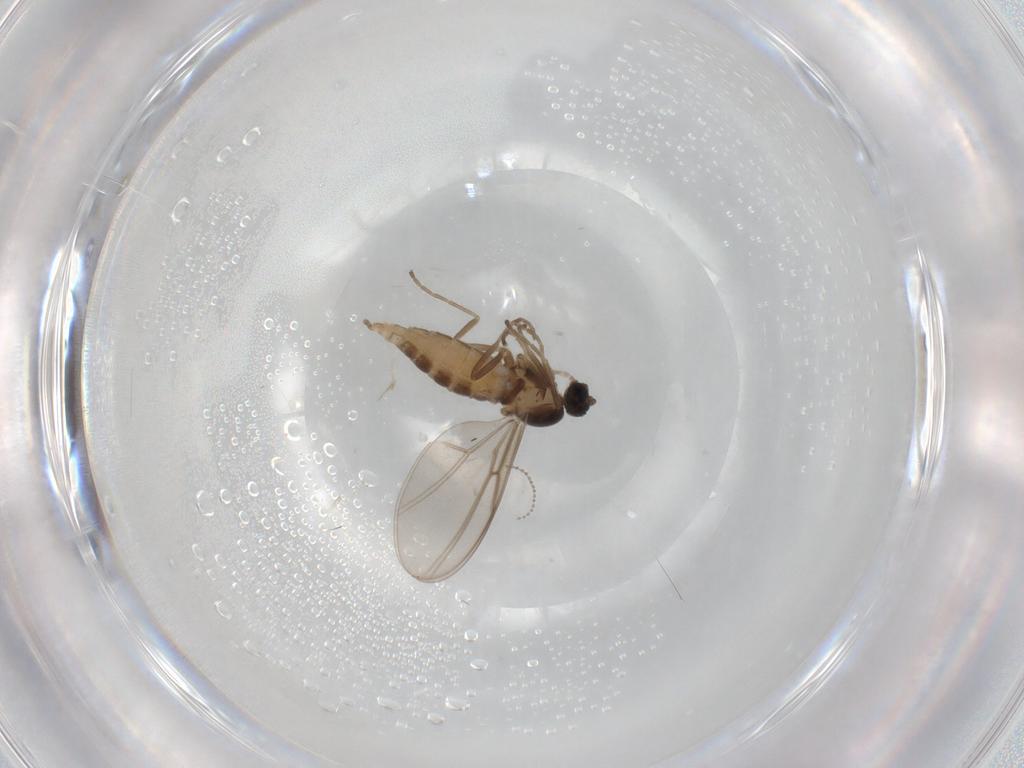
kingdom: Animalia
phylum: Arthropoda
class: Insecta
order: Diptera
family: Cecidomyiidae
